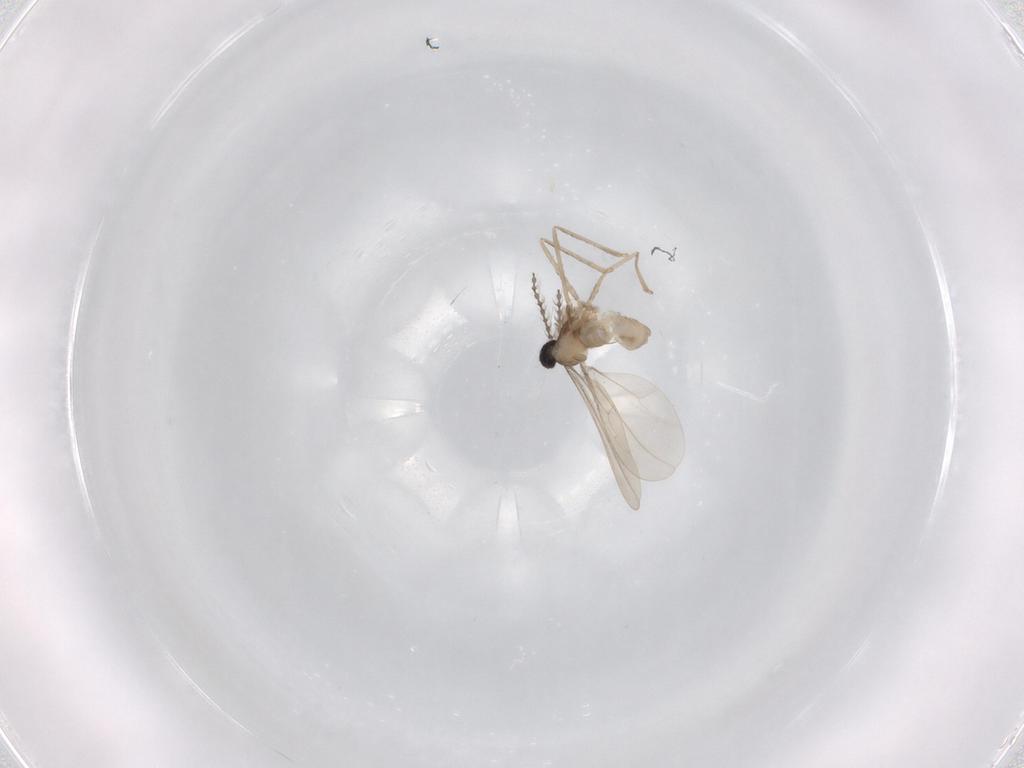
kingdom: Animalia
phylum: Arthropoda
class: Insecta
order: Diptera
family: Cecidomyiidae
